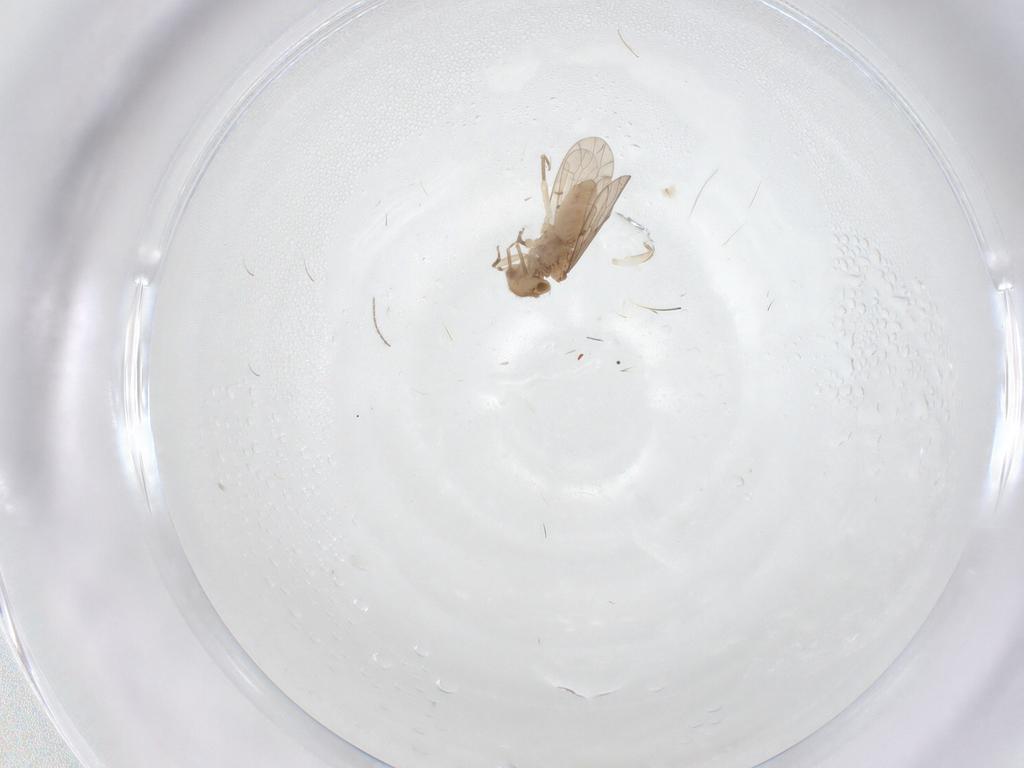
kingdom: Animalia
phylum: Arthropoda
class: Insecta
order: Psocodea
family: Ectopsocidae
